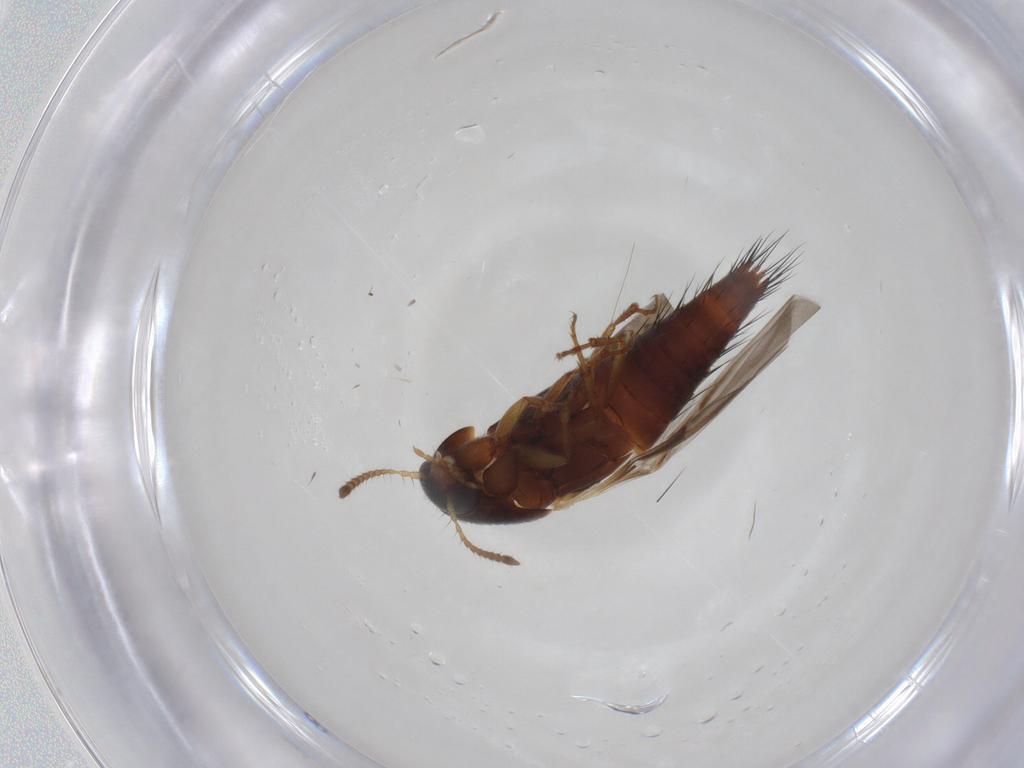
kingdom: Animalia
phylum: Arthropoda
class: Insecta
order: Coleoptera
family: Staphylinidae
